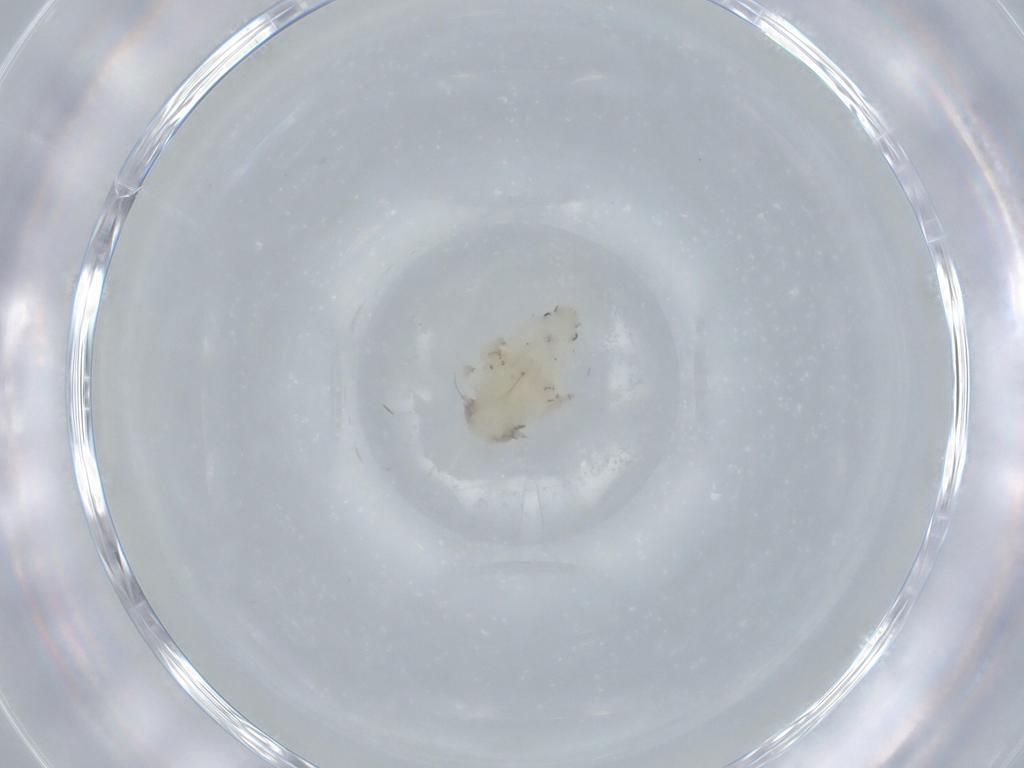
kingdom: Animalia
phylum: Arthropoda
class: Insecta
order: Hemiptera
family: Nogodinidae
